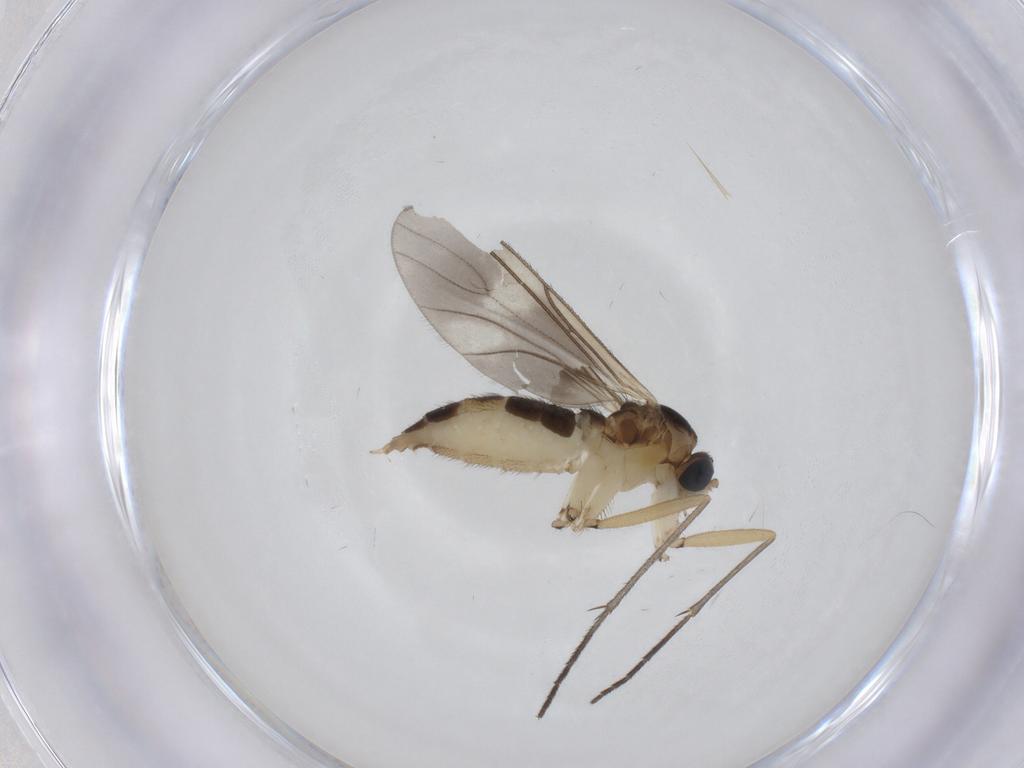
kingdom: Animalia
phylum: Arthropoda
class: Insecta
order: Diptera
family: Sciaridae
